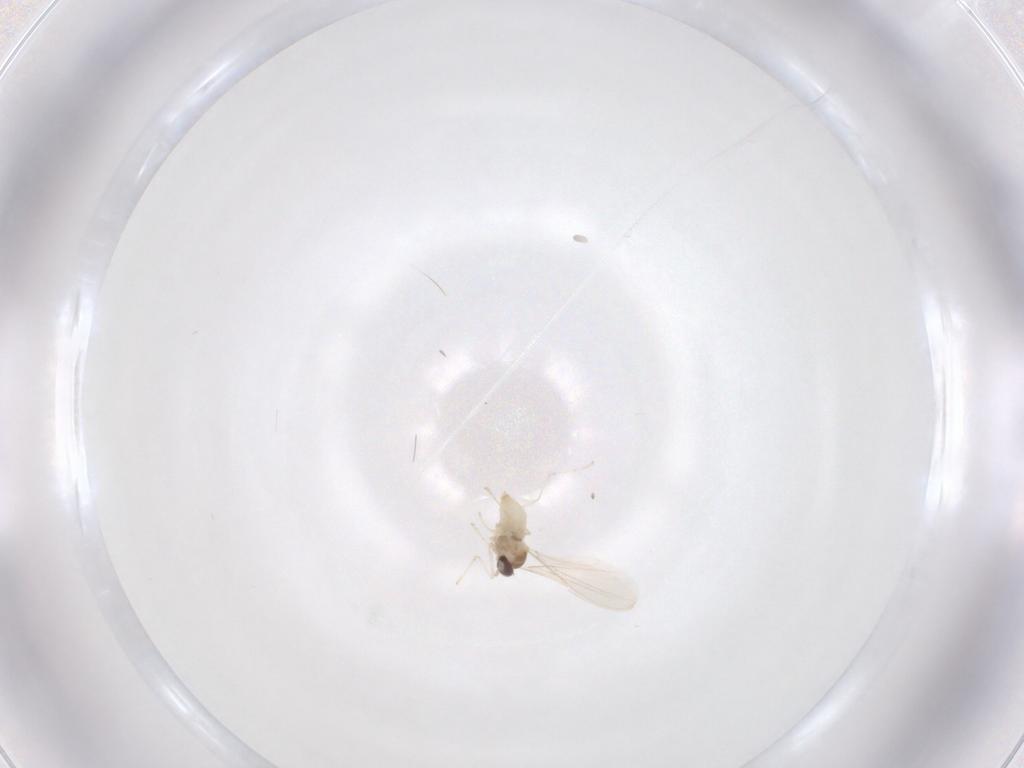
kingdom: Animalia
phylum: Arthropoda
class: Insecta
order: Diptera
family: Cecidomyiidae
